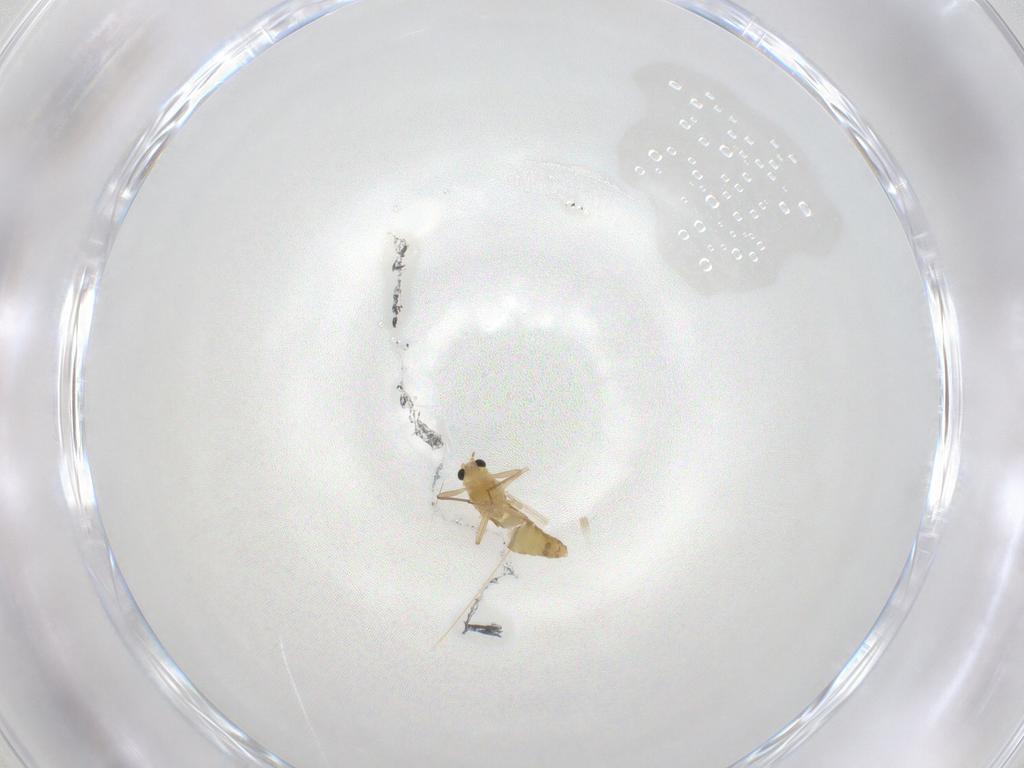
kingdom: Animalia
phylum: Arthropoda
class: Insecta
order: Diptera
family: Chironomidae
